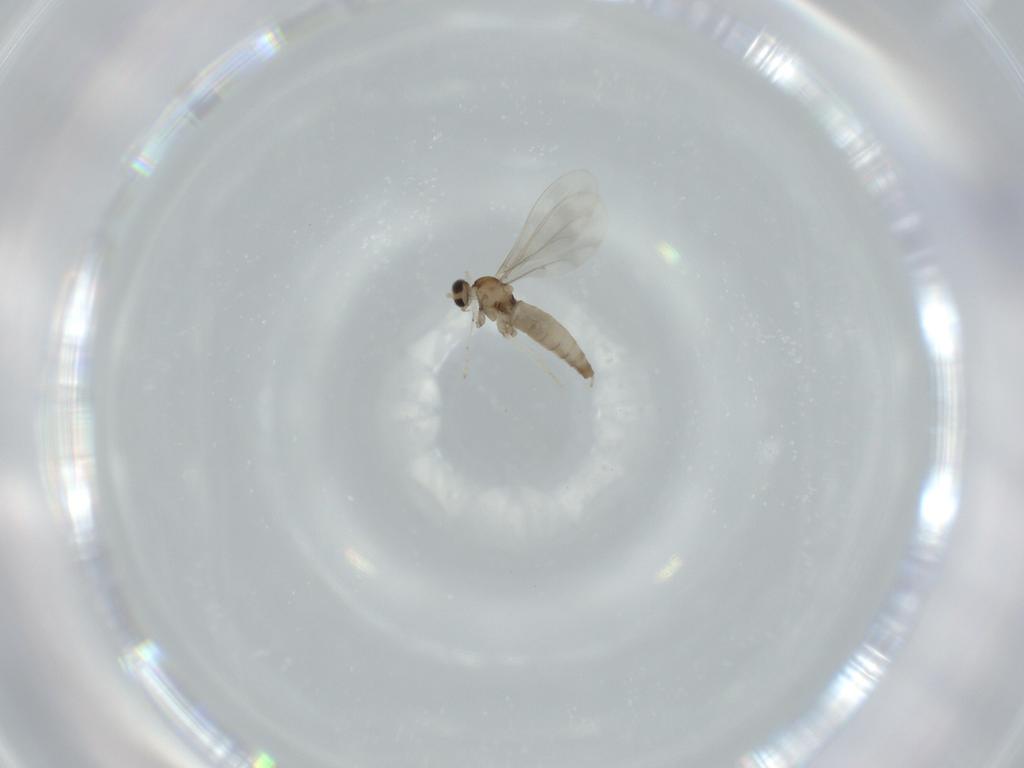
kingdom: Animalia
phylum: Arthropoda
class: Insecta
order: Diptera
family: Cecidomyiidae
